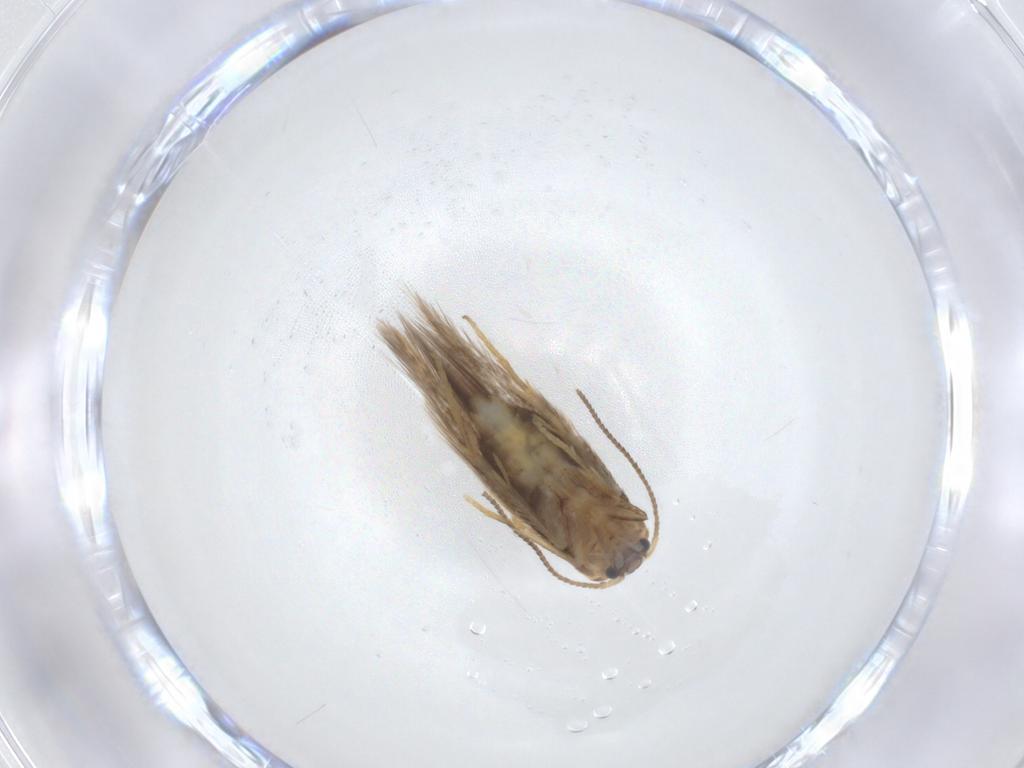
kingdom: Animalia
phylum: Arthropoda
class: Insecta
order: Lepidoptera
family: Nepticulidae
